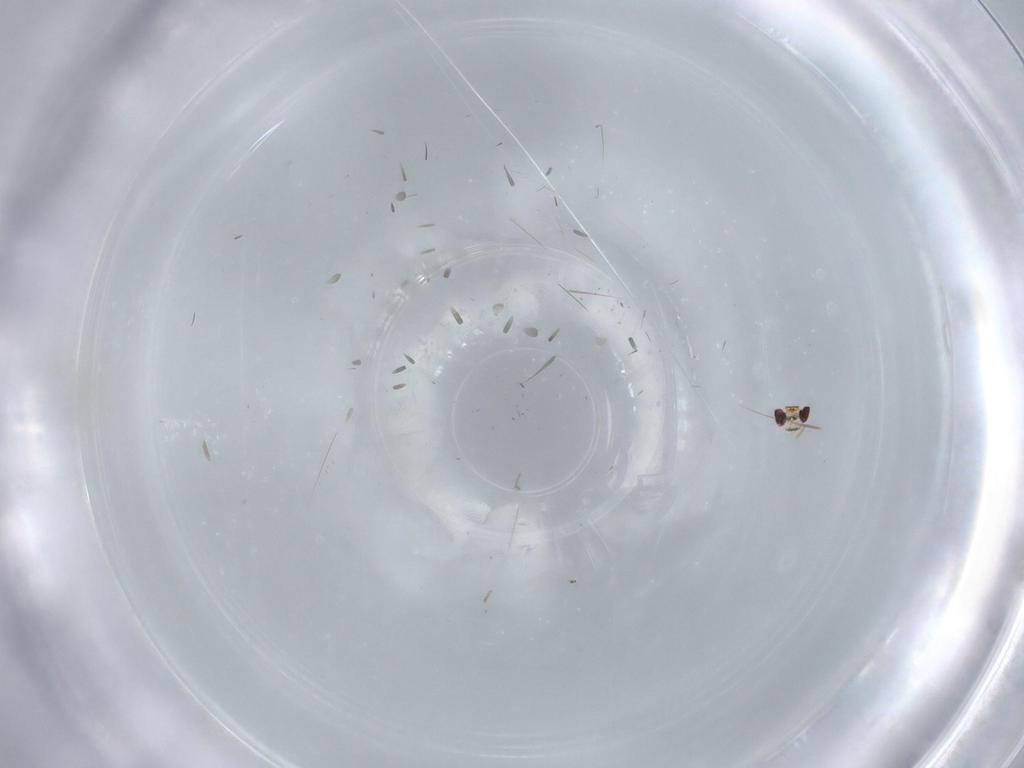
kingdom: Animalia
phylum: Arthropoda
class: Insecta
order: Hymenoptera
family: Aphelinidae
